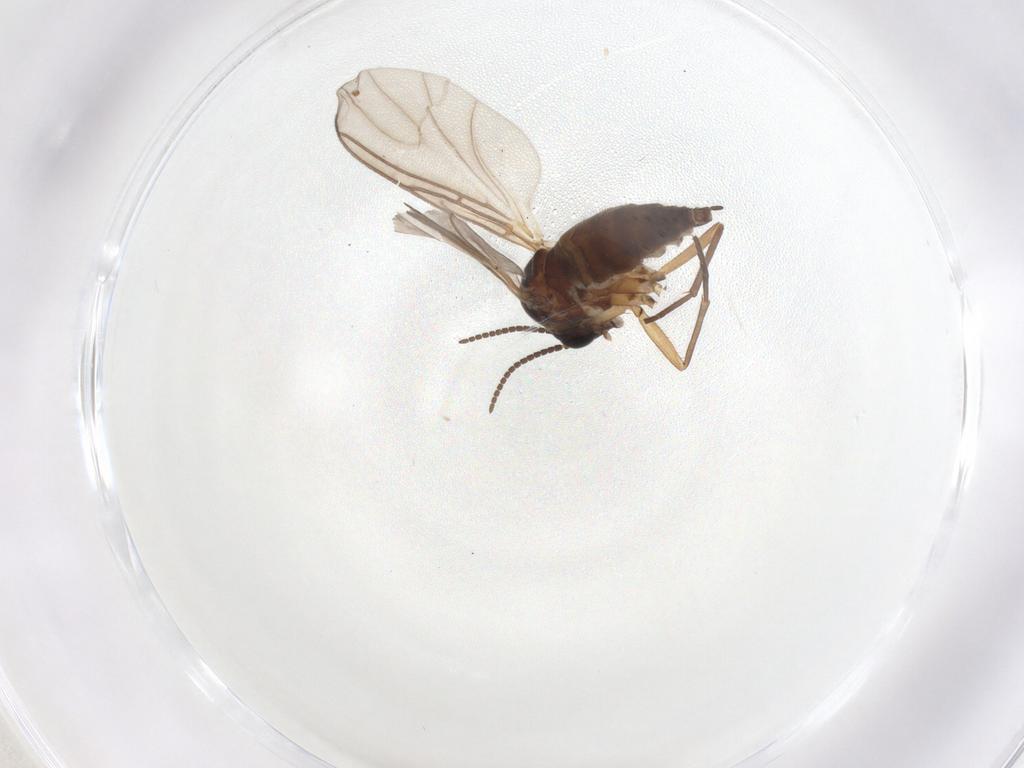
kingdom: Animalia
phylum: Arthropoda
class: Insecta
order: Diptera
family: Sciaridae
